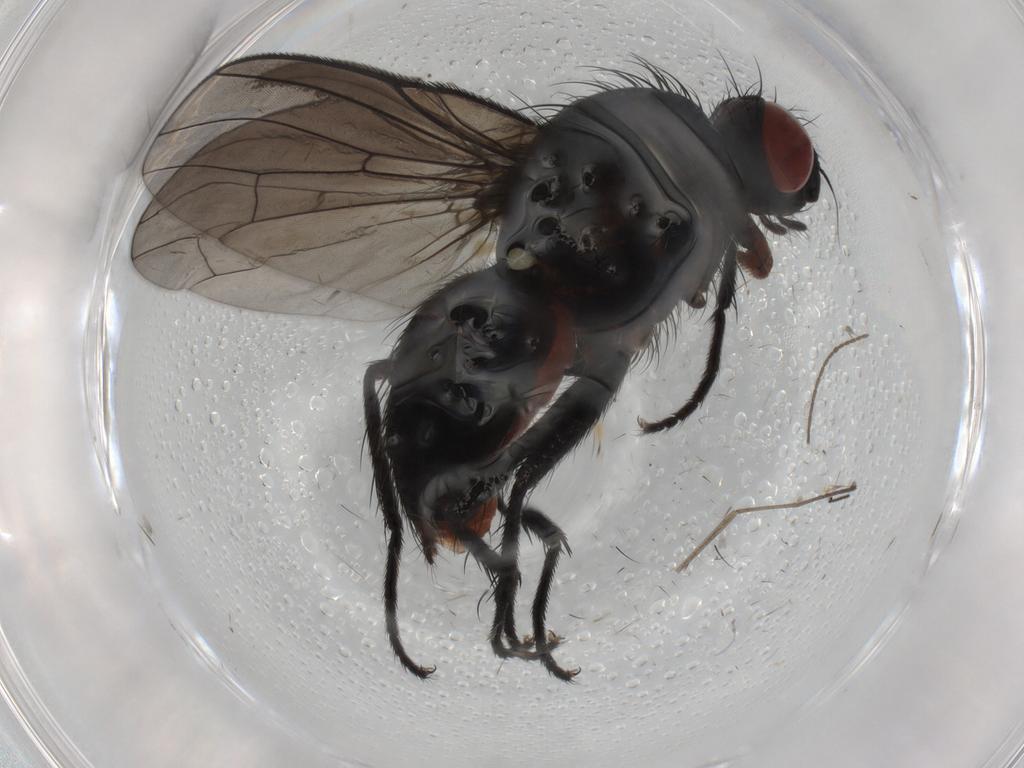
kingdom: Animalia
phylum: Arthropoda
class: Insecta
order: Diptera
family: Anthomyiidae
